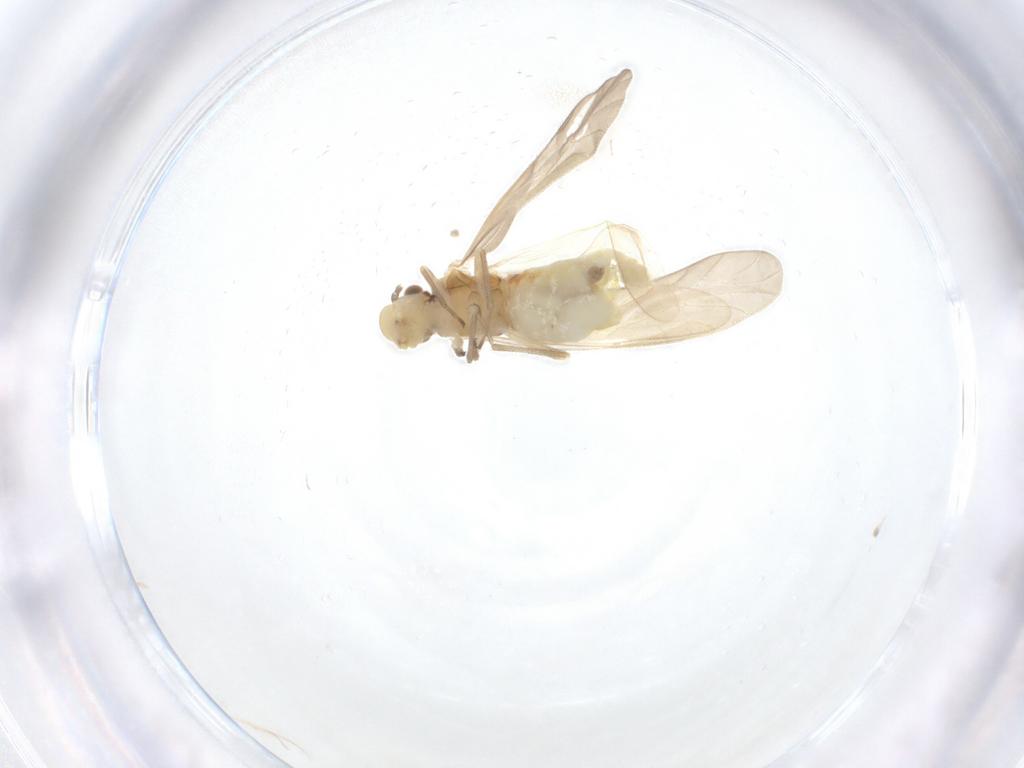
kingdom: Animalia
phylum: Arthropoda
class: Insecta
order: Psocodea
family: Caeciliusidae
